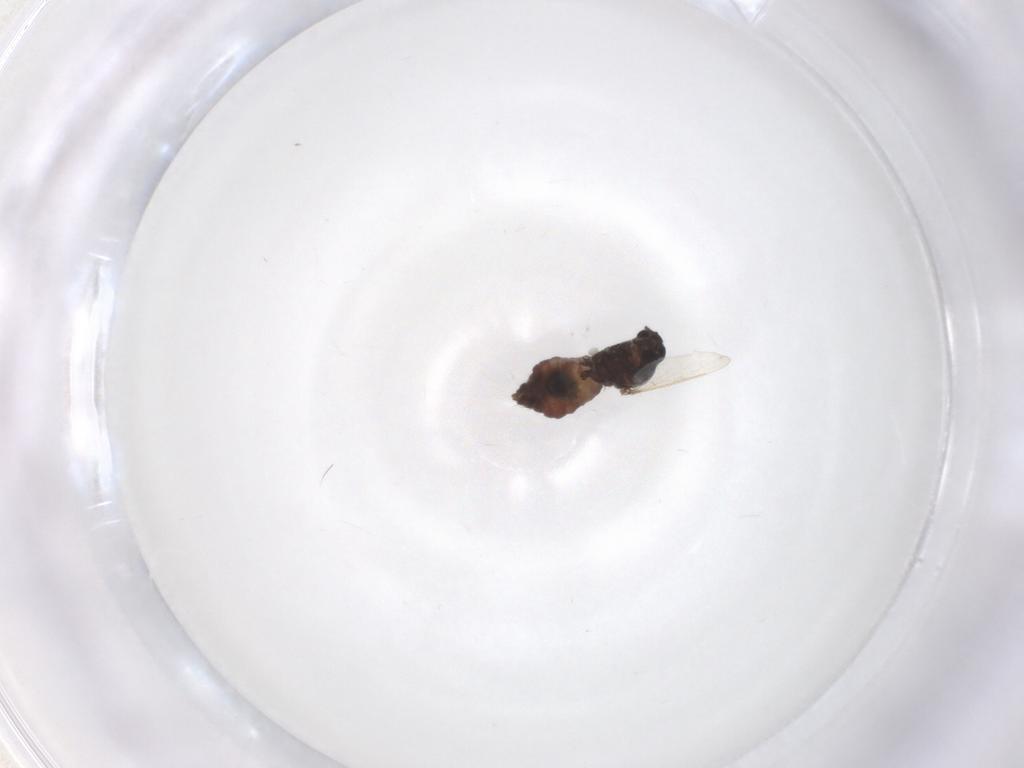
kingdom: Animalia
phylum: Arthropoda
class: Insecta
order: Diptera
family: Ceratopogonidae
